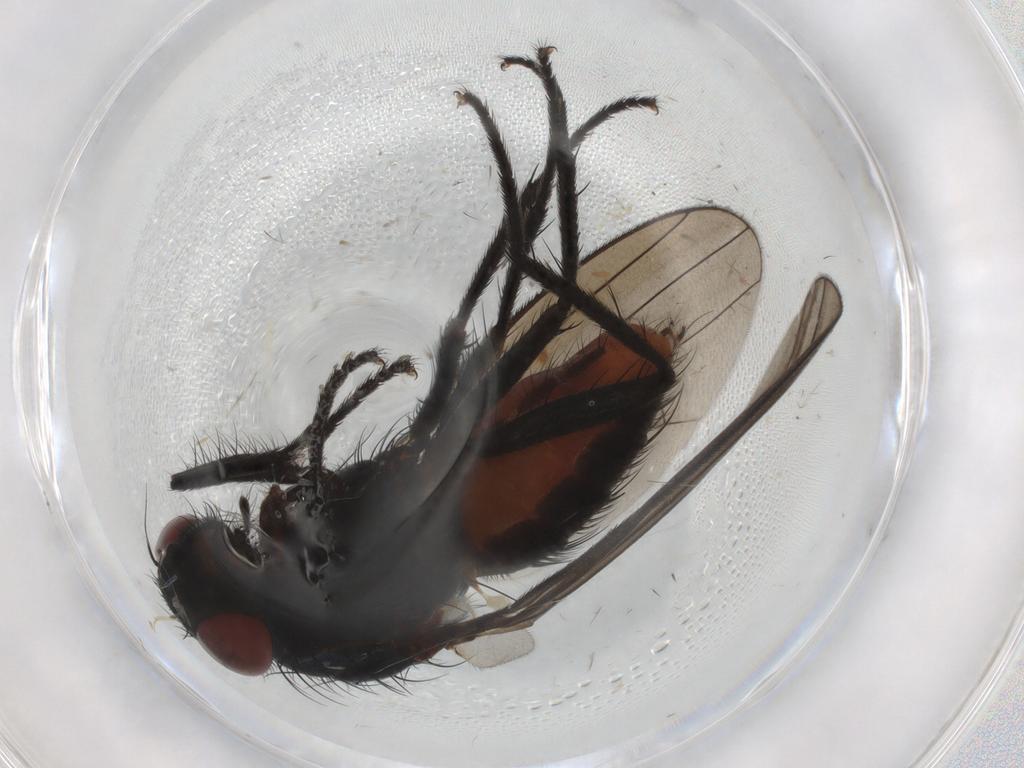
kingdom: Animalia
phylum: Arthropoda
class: Insecta
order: Diptera
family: Anthomyiidae
